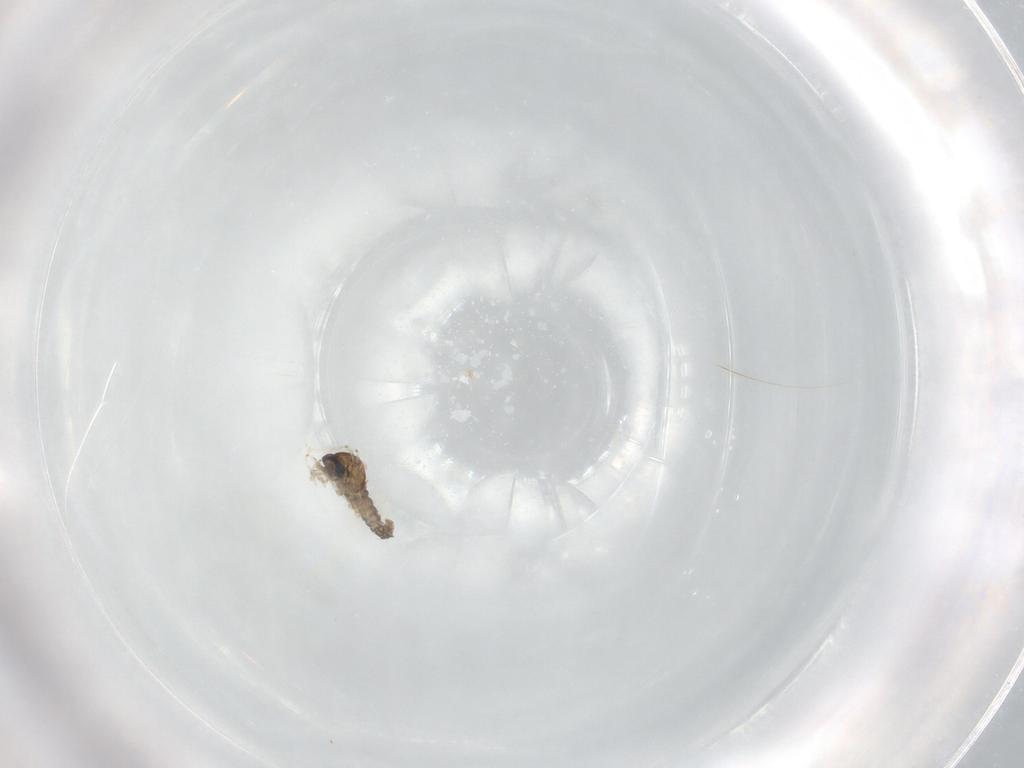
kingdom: Animalia
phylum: Arthropoda
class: Insecta
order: Diptera
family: Cecidomyiidae
